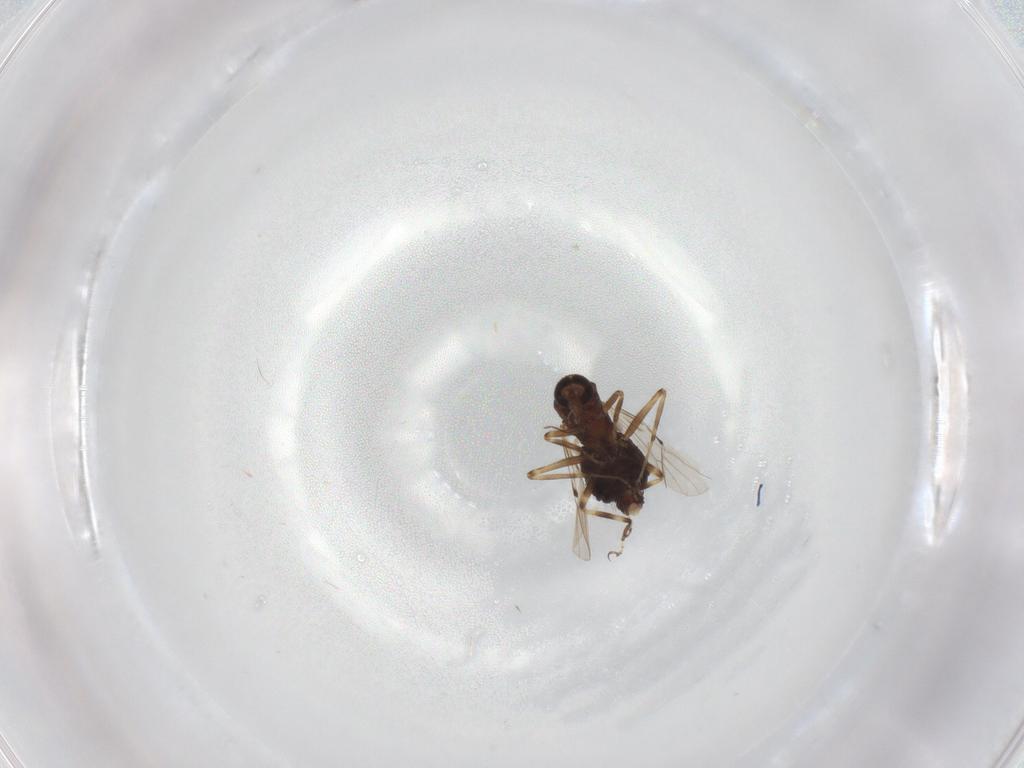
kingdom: Animalia
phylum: Arthropoda
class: Insecta
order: Diptera
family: Ceratopogonidae
